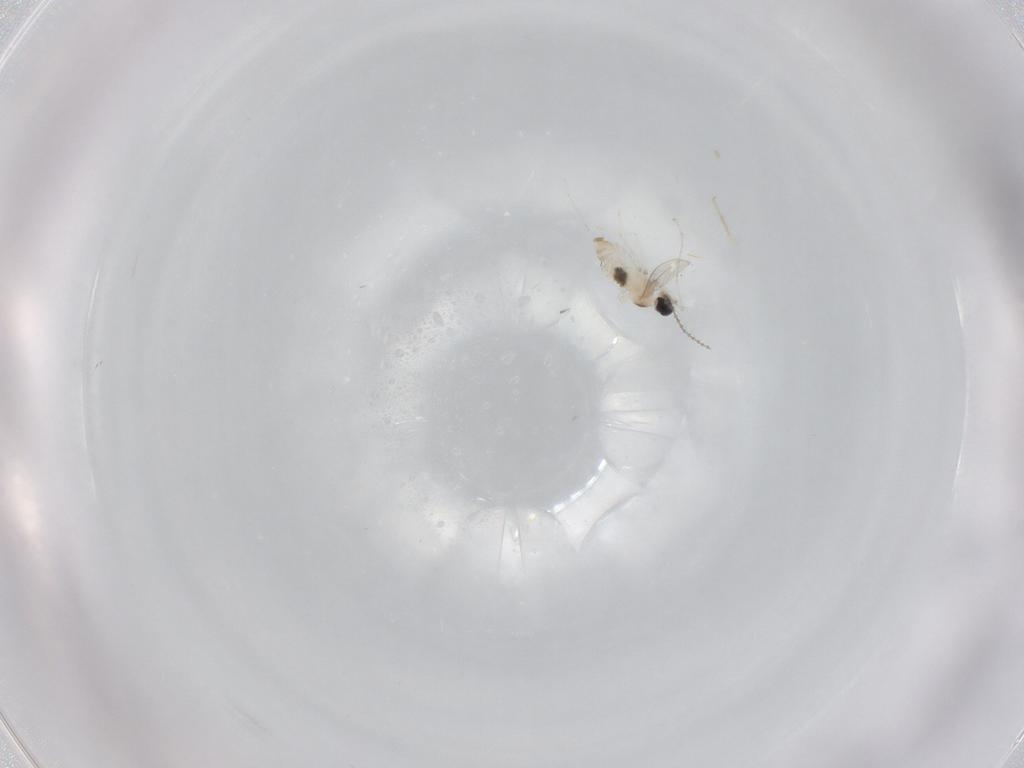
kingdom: Animalia
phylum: Arthropoda
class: Insecta
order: Diptera
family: Cecidomyiidae
